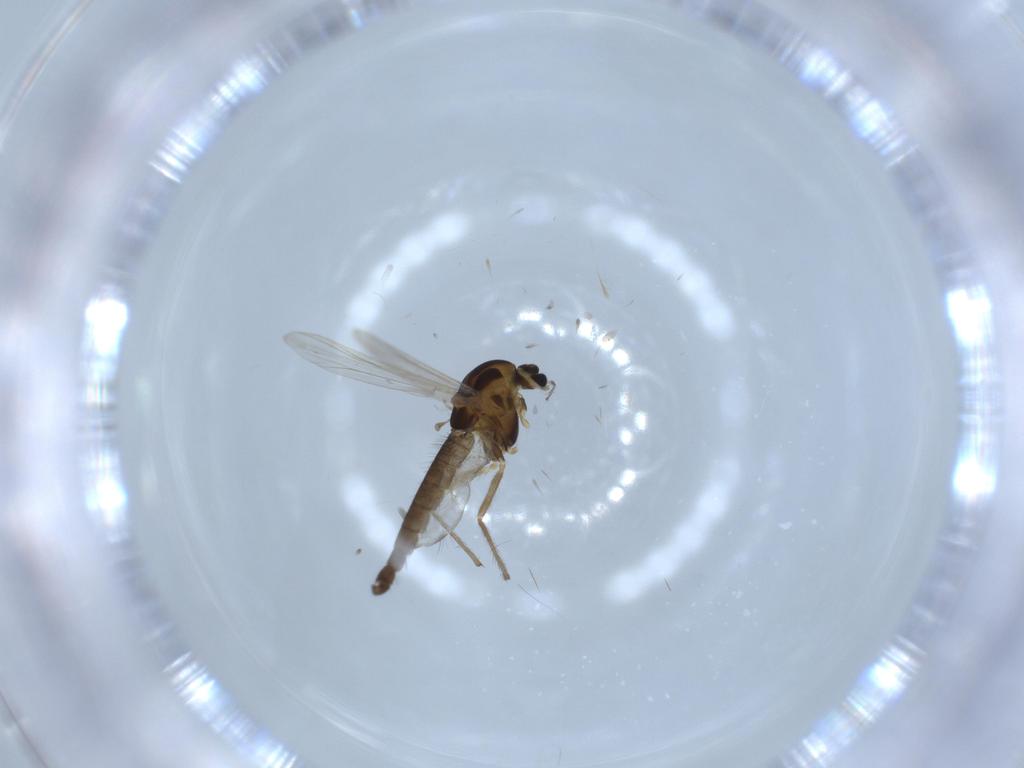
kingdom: Animalia
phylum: Arthropoda
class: Insecta
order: Diptera
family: Chironomidae
